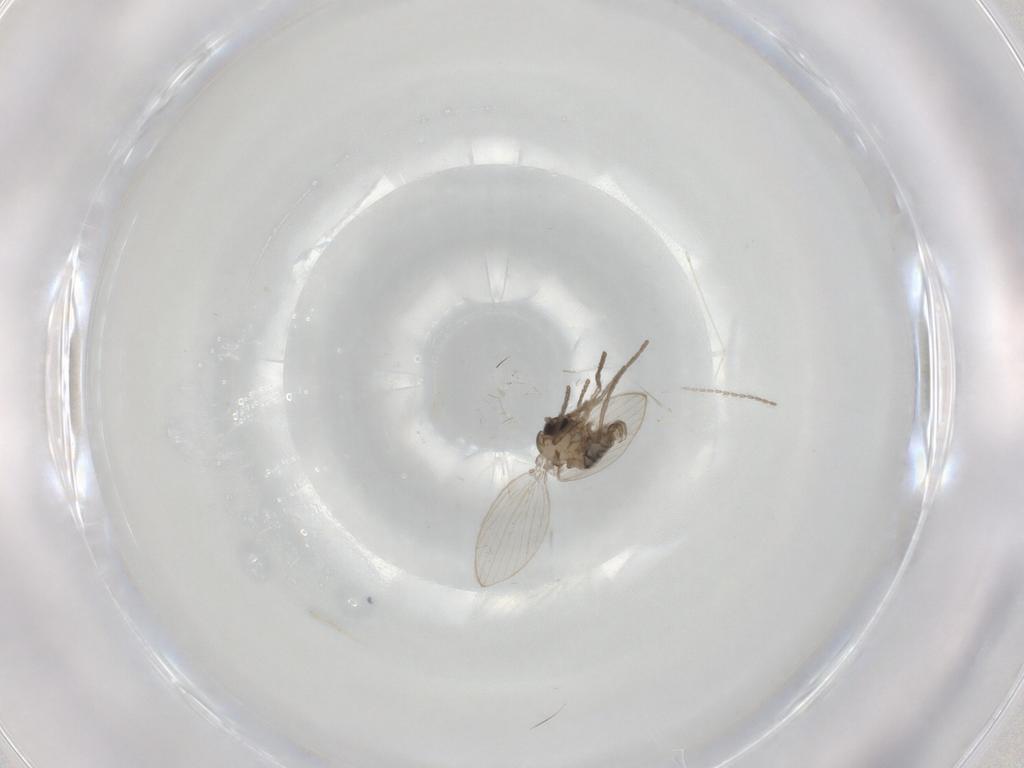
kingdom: Animalia
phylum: Arthropoda
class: Insecta
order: Diptera
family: Psychodidae
